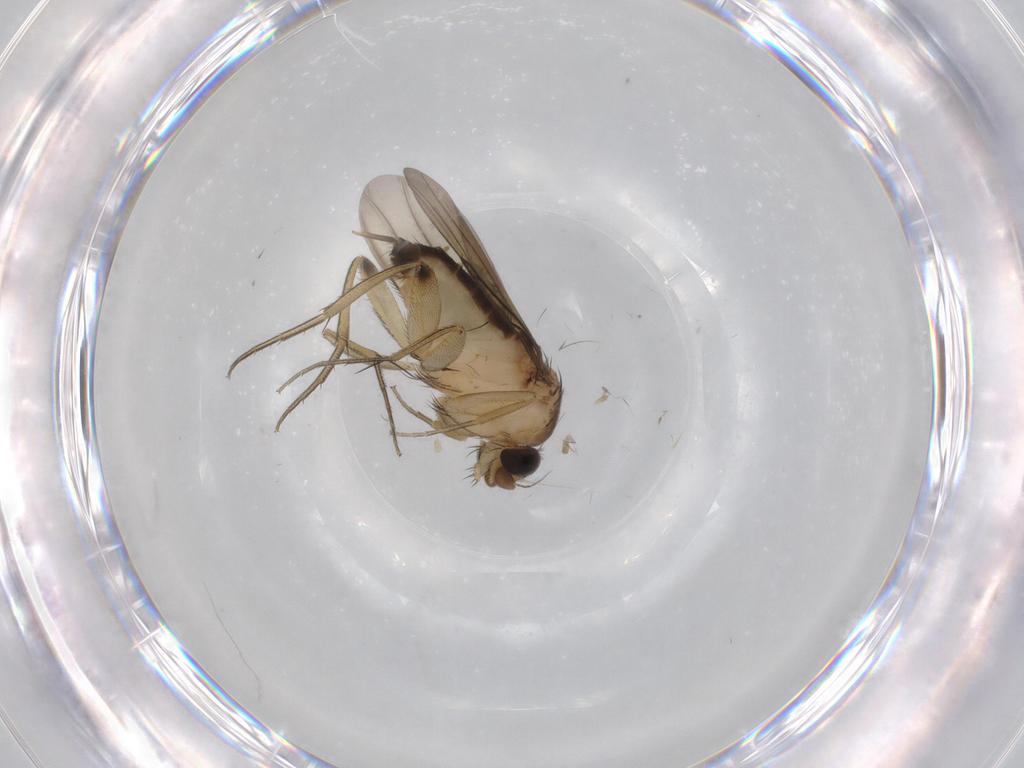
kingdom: Animalia
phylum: Arthropoda
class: Insecta
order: Diptera
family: Phoridae
